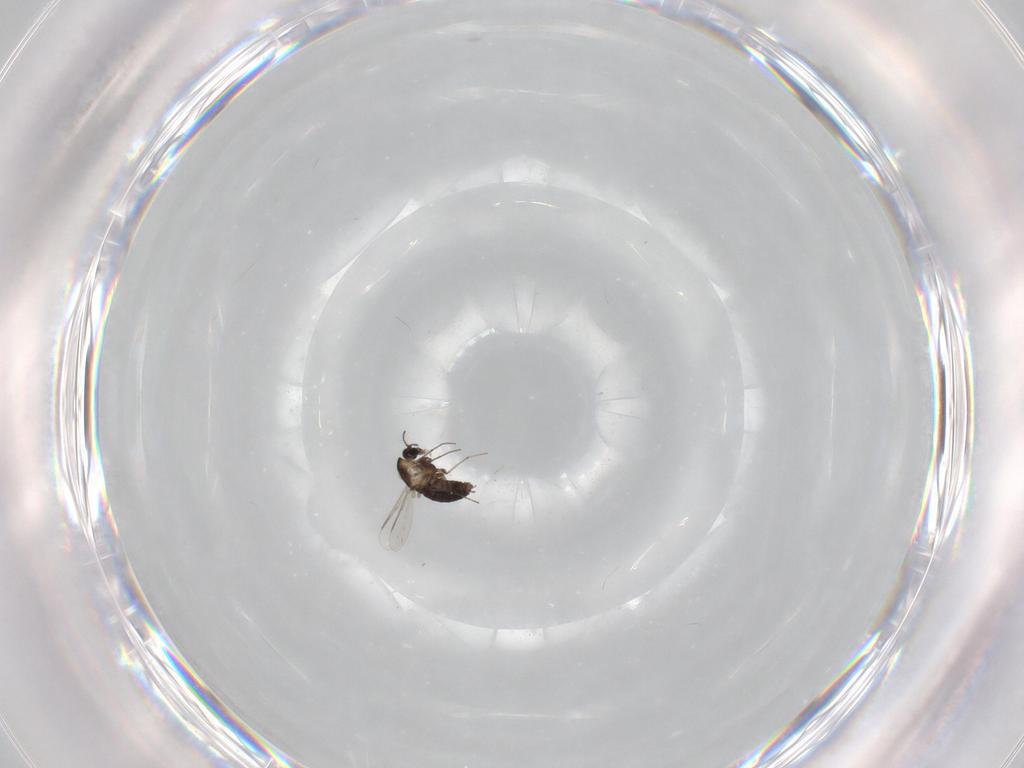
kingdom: Animalia
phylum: Arthropoda
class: Insecta
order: Diptera
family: Chironomidae
